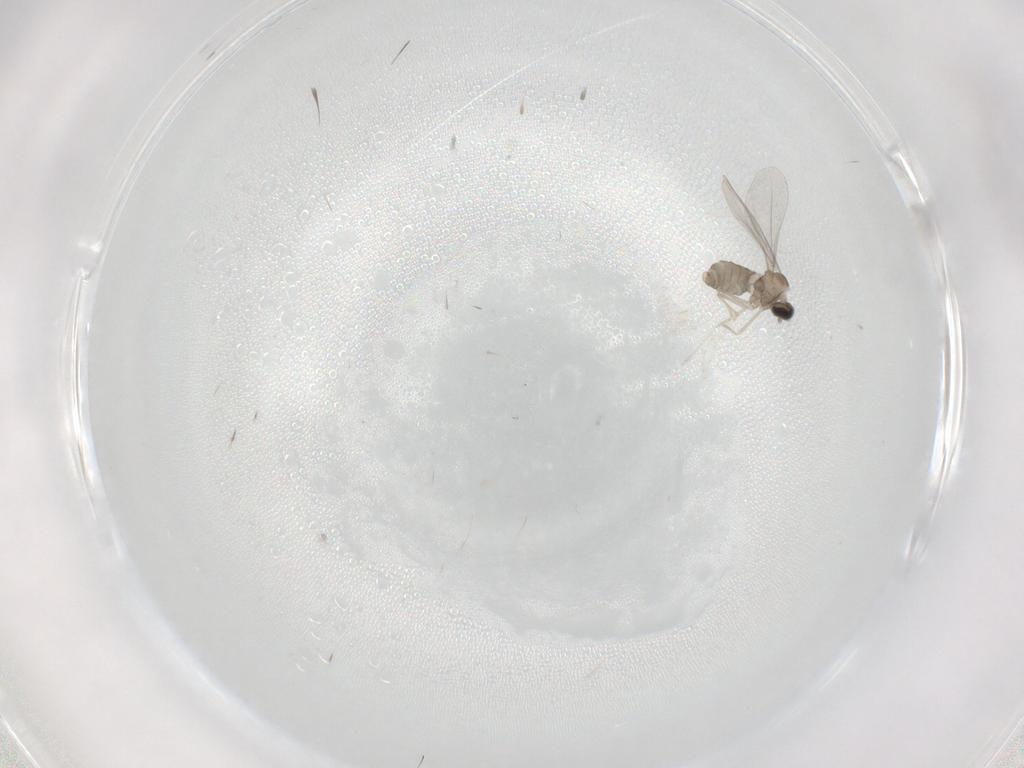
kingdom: Animalia
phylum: Arthropoda
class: Insecta
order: Diptera
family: Cecidomyiidae
